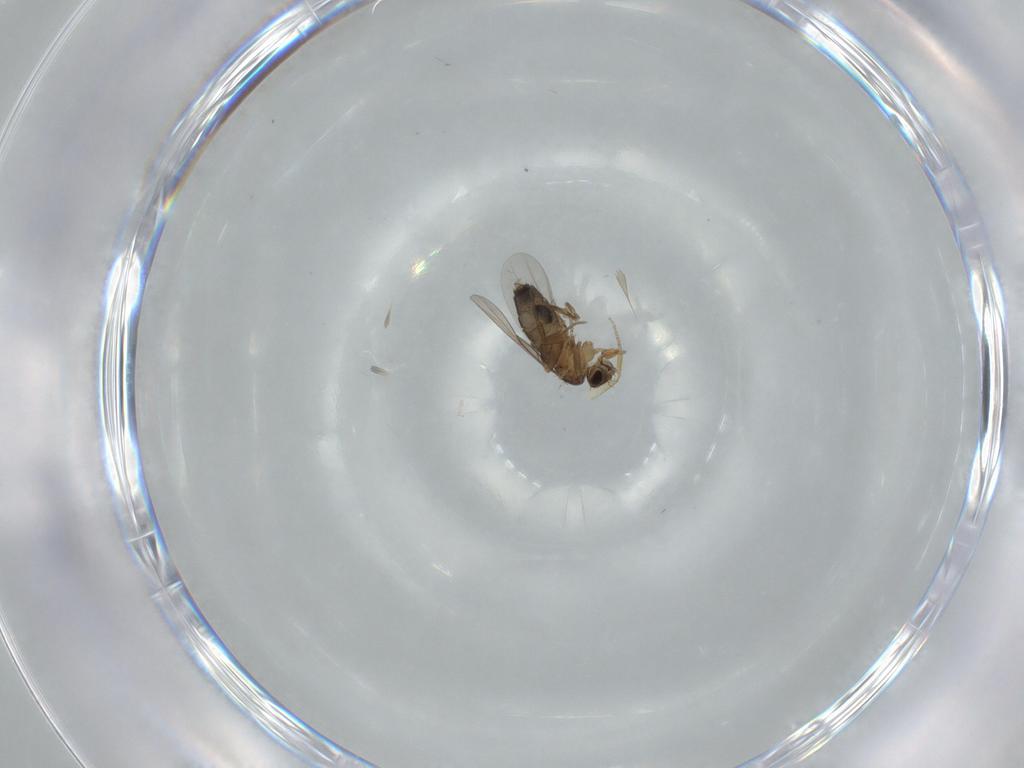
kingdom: Animalia
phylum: Arthropoda
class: Insecta
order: Diptera
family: Phoridae
